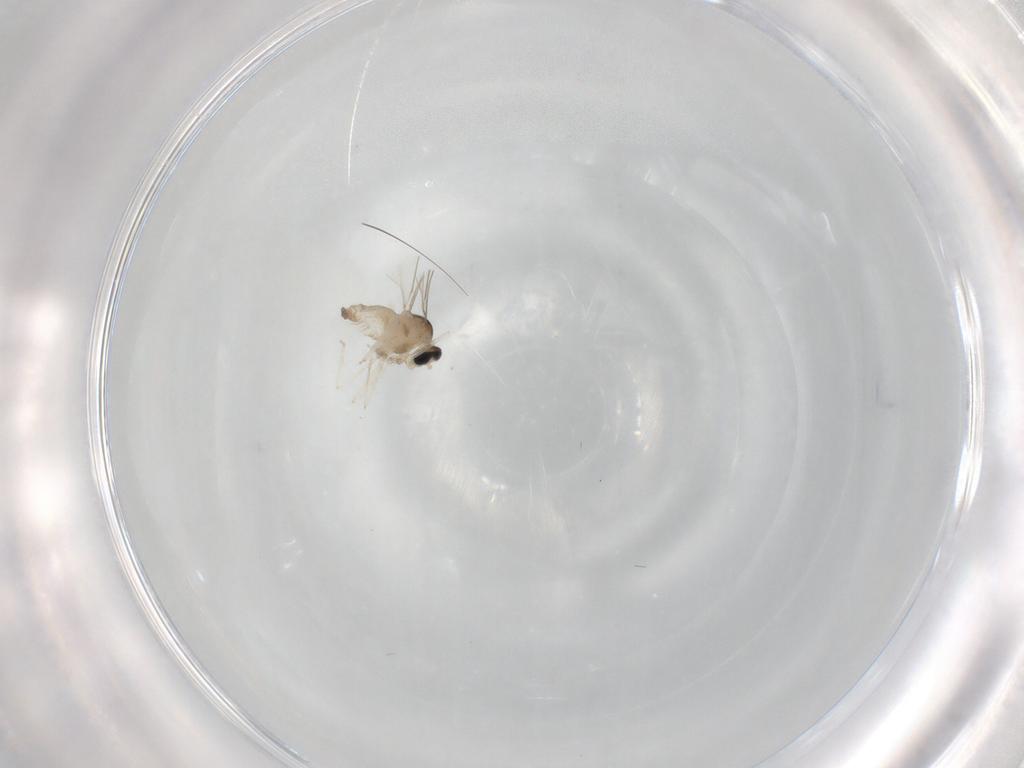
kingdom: Animalia
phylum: Arthropoda
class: Insecta
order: Diptera
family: Cecidomyiidae
